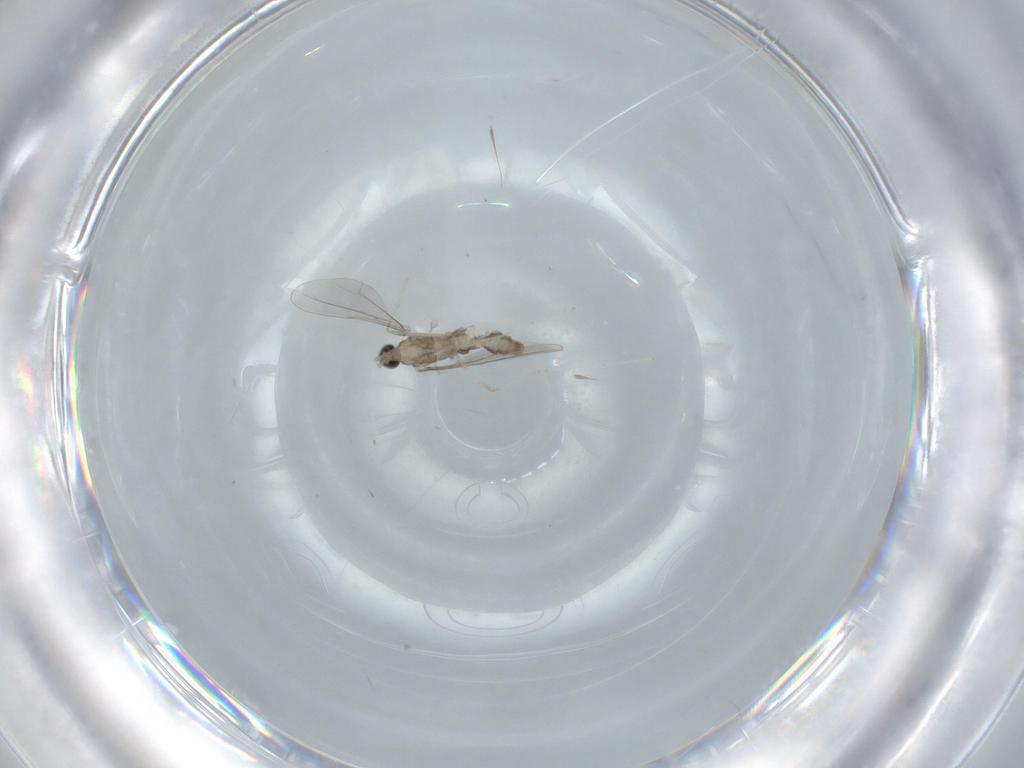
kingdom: Animalia
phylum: Arthropoda
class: Insecta
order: Diptera
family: Cecidomyiidae
